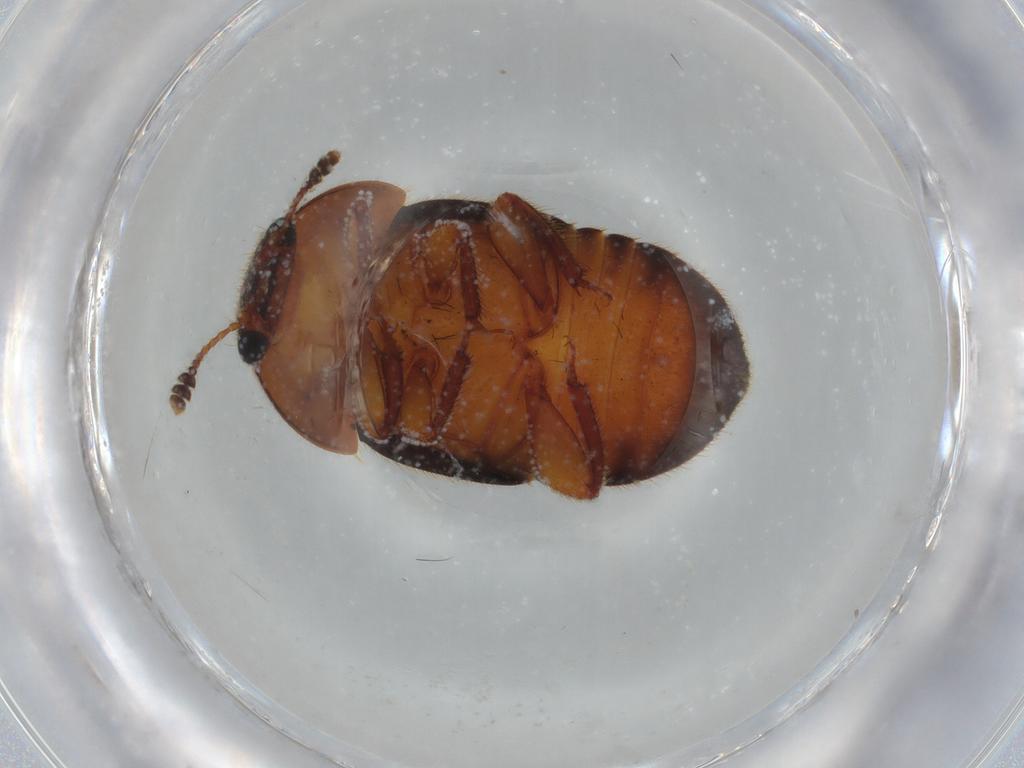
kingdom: Animalia
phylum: Arthropoda
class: Insecta
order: Coleoptera
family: Nitidulidae
